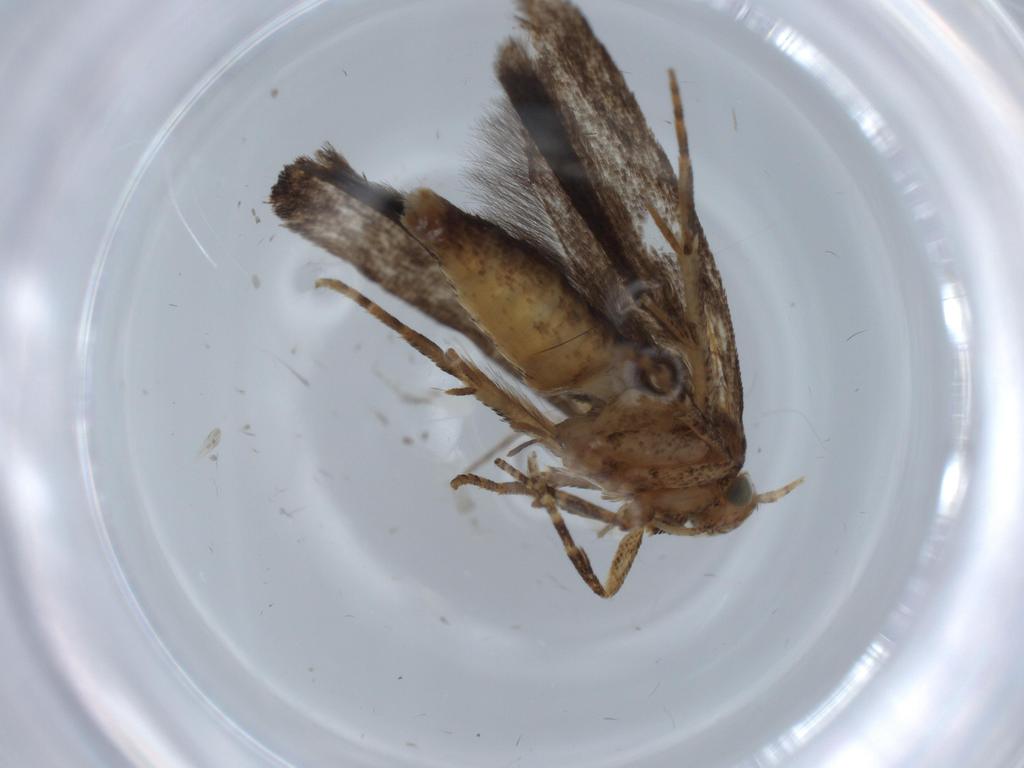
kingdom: Animalia
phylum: Arthropoda
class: Insecta
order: Lepidoptera
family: Gelechiidae
